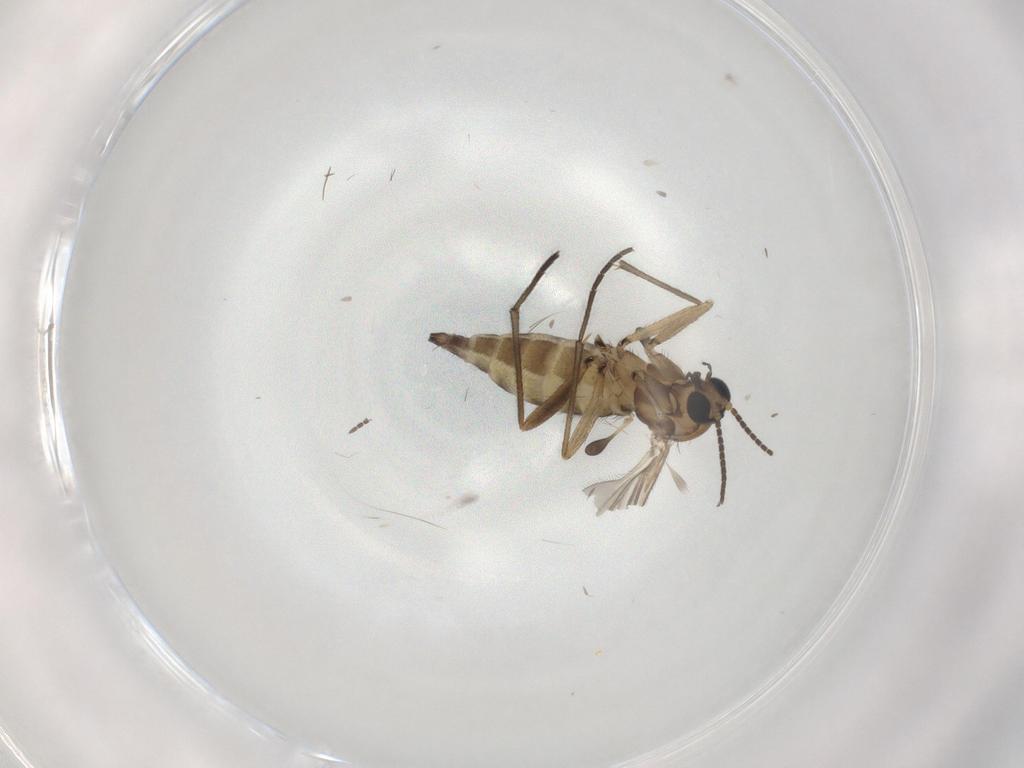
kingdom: Animalia
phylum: Arthropoda
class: Insecta
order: Diptera
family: Sciaridae
